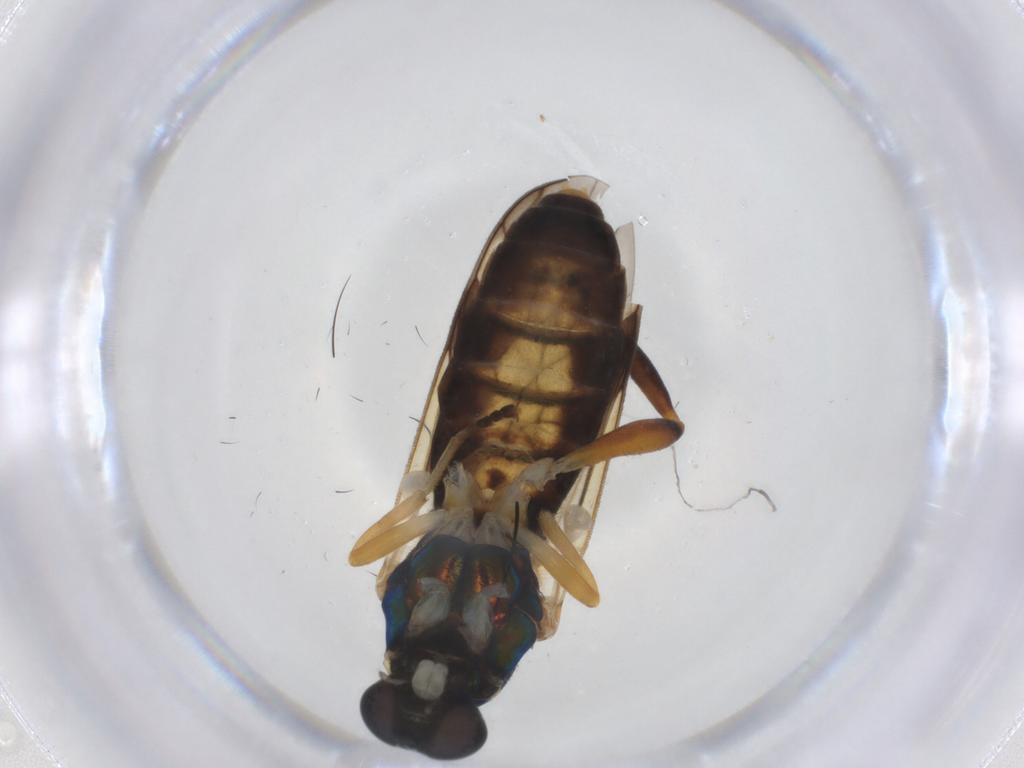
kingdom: Animalia
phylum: Arthropoda
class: Insecta
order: Diptera
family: Stratiomyidae
